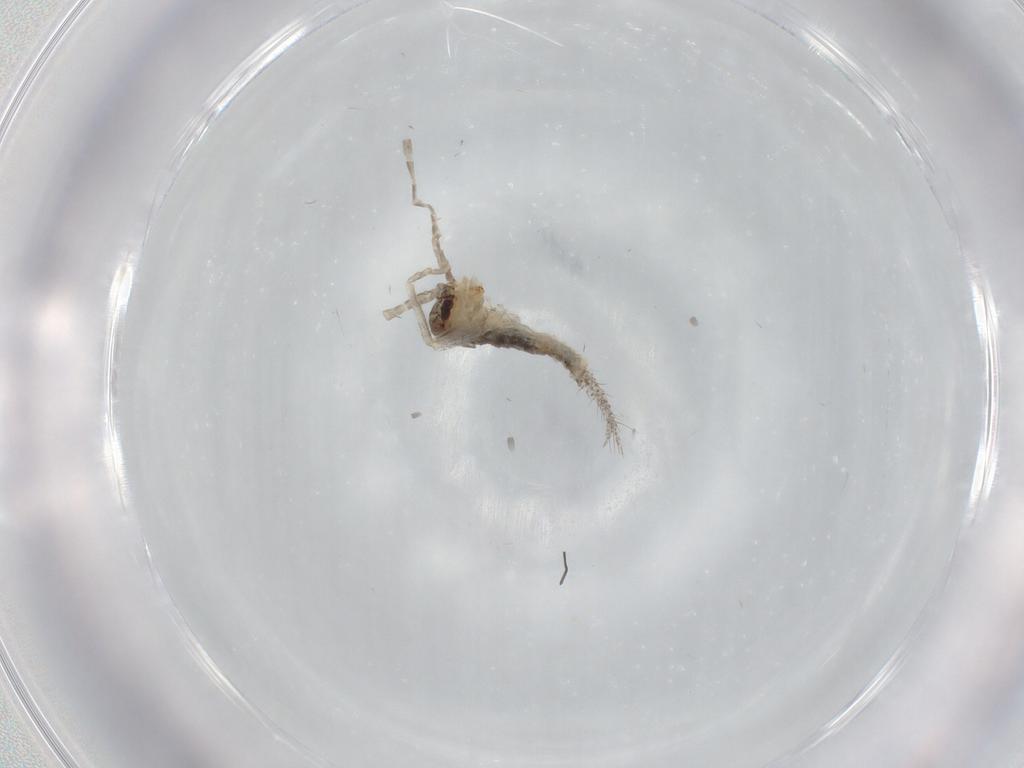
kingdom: Animalia
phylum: Arthropoda
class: Insecta
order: Orthoptera
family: Gryllidae
